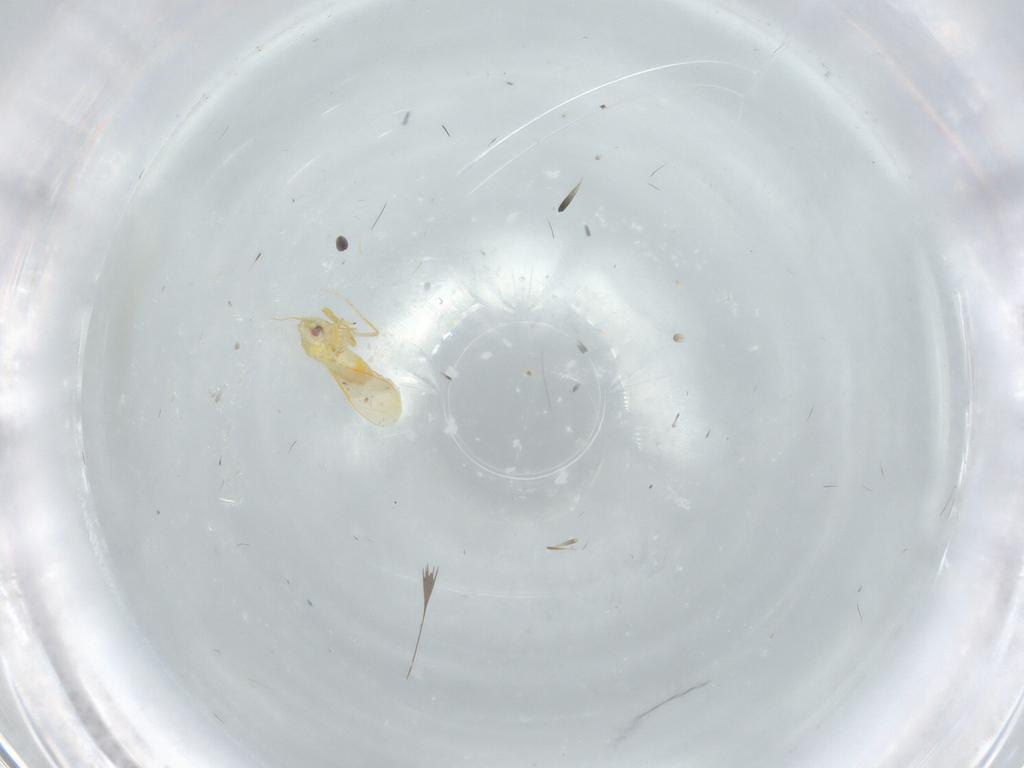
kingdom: Animalia
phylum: Arthropoda
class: Insecta
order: Hemiptera
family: Aleyrodidae
